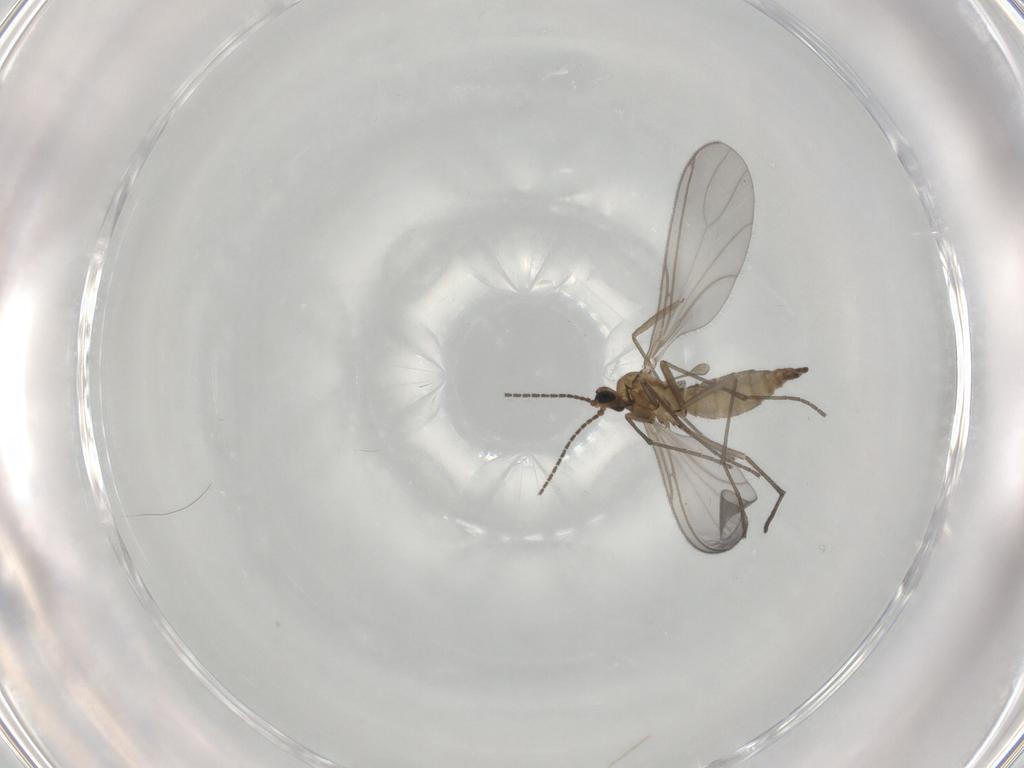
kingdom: Animalia
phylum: Arthropoda
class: Insecta
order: Diptera
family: Sciaridae
